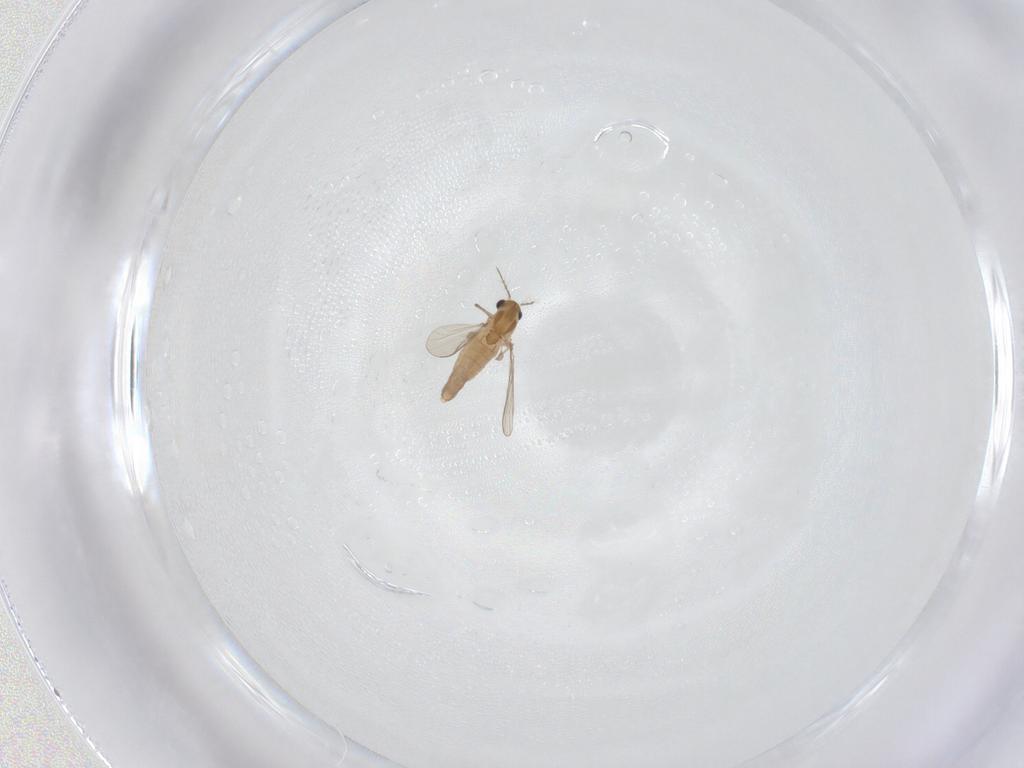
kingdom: Animalia
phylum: Arthropoda
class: Insecta
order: Diptera
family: Chironomidae
